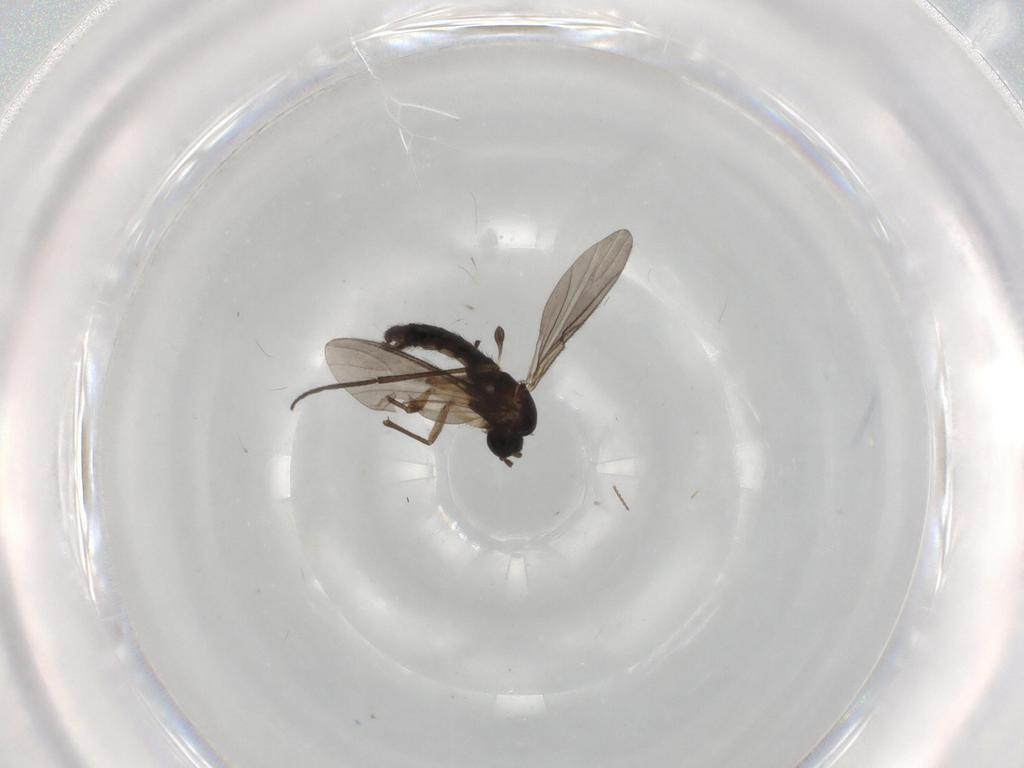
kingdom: Animalia
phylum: Arthropoda
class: Insecta
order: Diptera
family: Sciaridae
